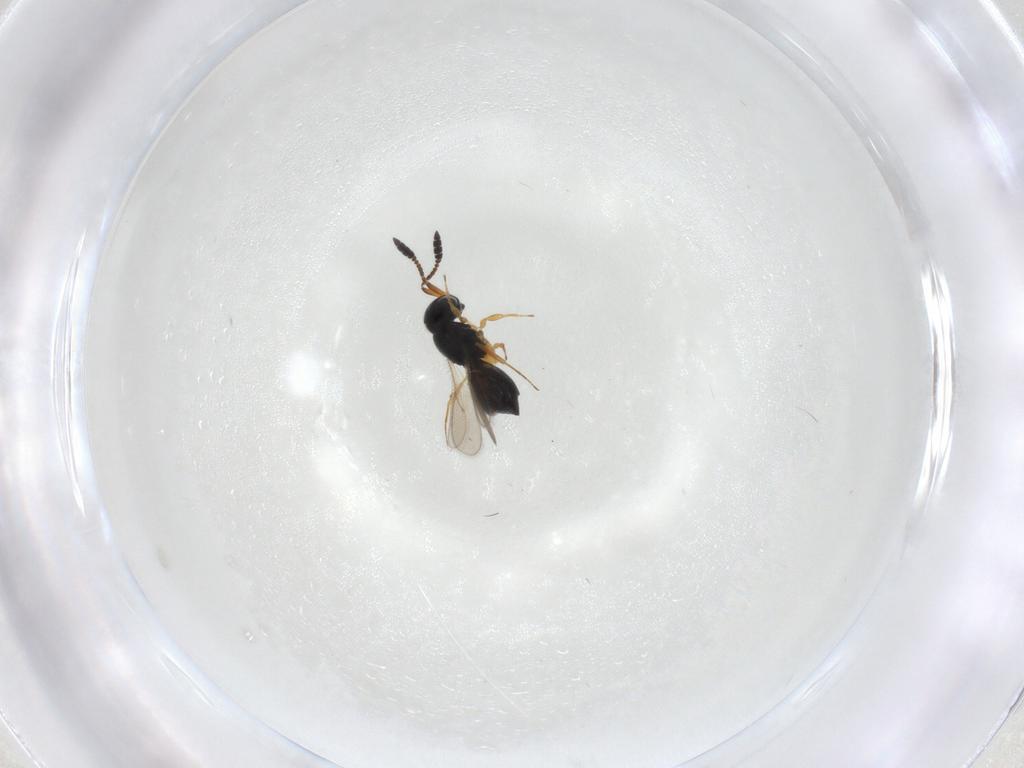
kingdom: Animalia
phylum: Arthropoda
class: Insecta
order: Hymenoptera
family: Scelionidae
